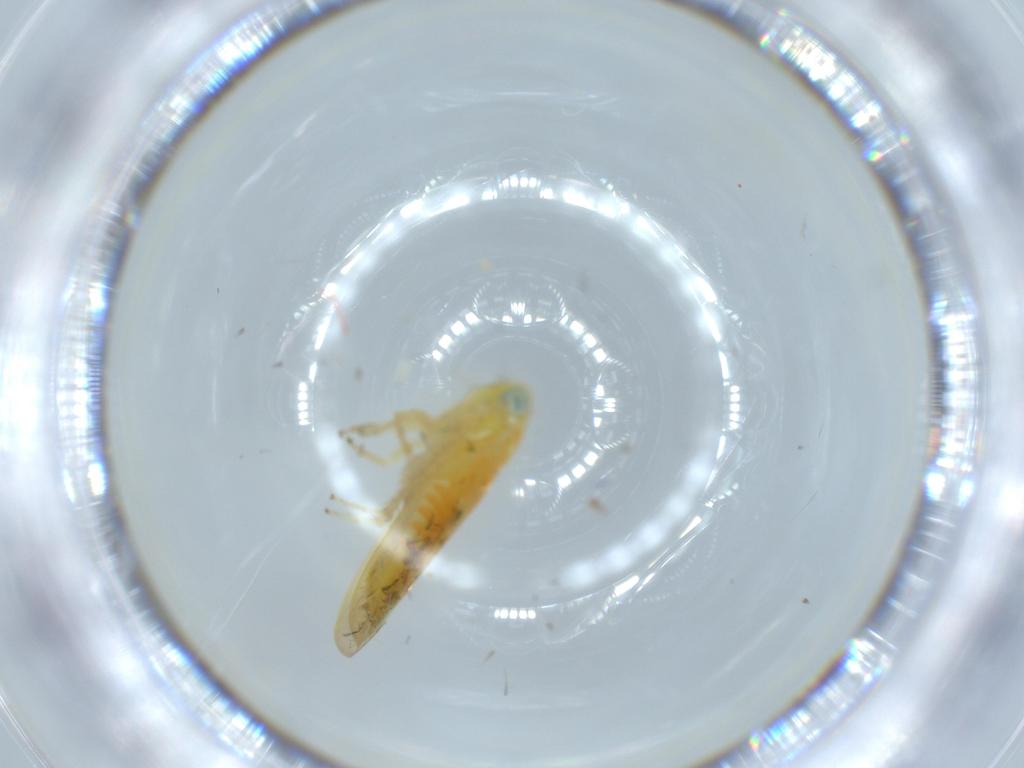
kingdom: Animalia
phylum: Arthropoda
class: Insecta
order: Hemiptera
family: Cicadellidae
